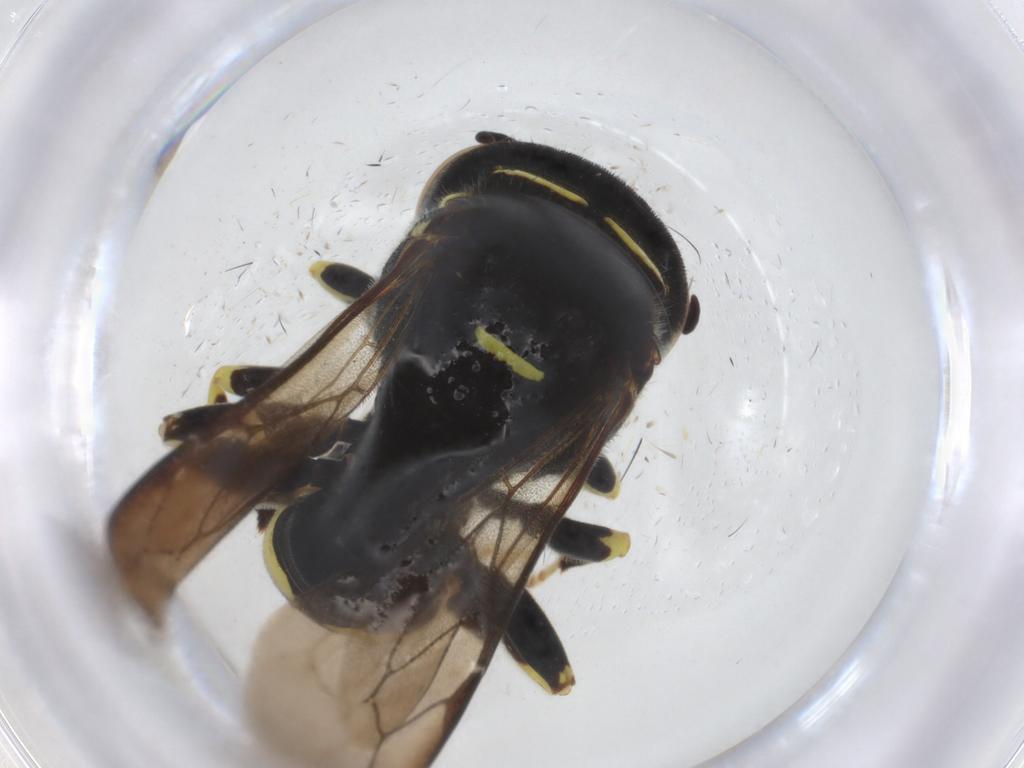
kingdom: Animalia
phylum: Arthropoda
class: Insecta
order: Hymenoptera
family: Crabronidae
